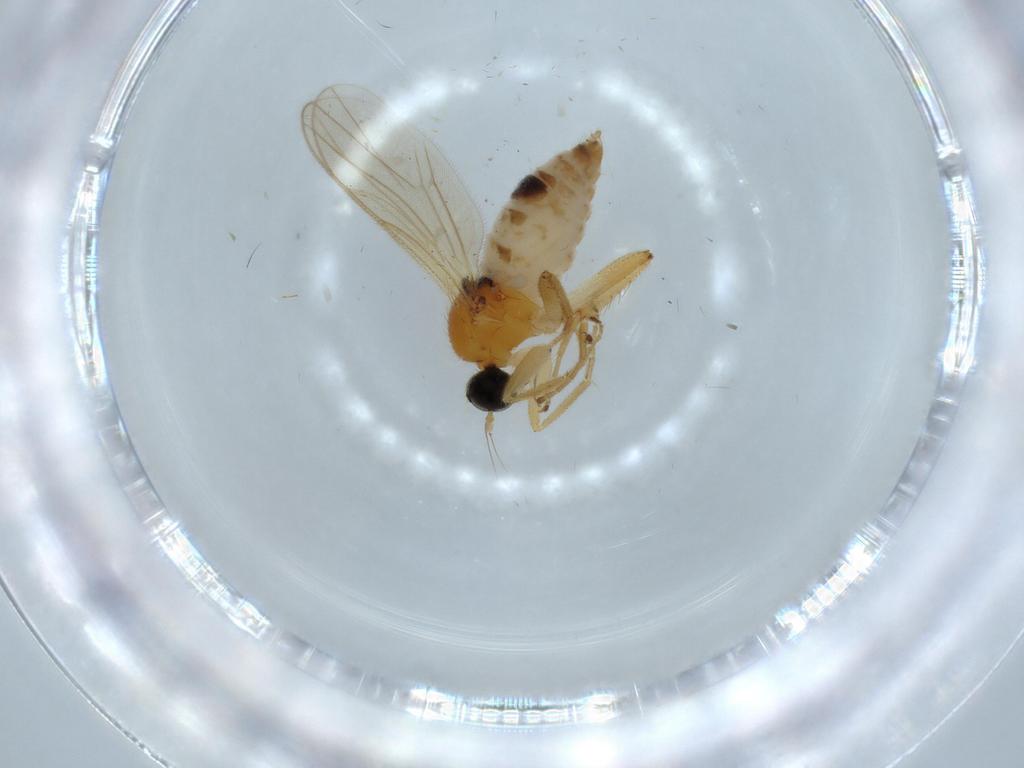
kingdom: Animalia
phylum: Arthropoda
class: Insecta
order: Diptera
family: Hybotidae
